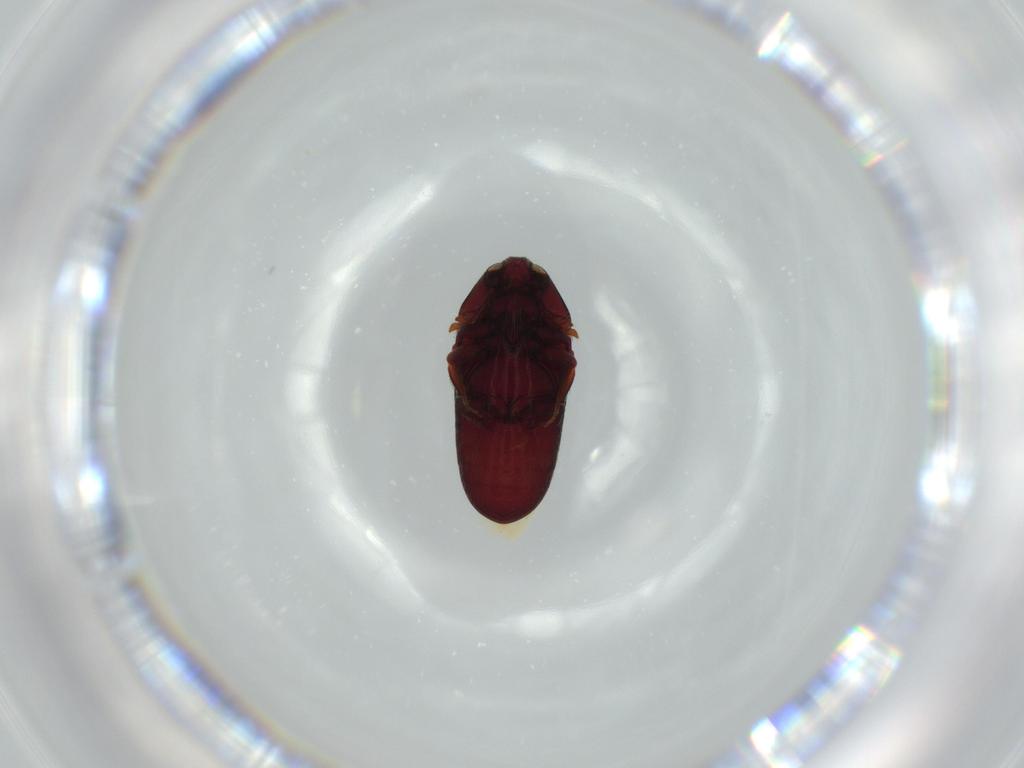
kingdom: Animalia
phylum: Arthropoda
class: Insecta
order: Coleoptera
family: Throscidae
